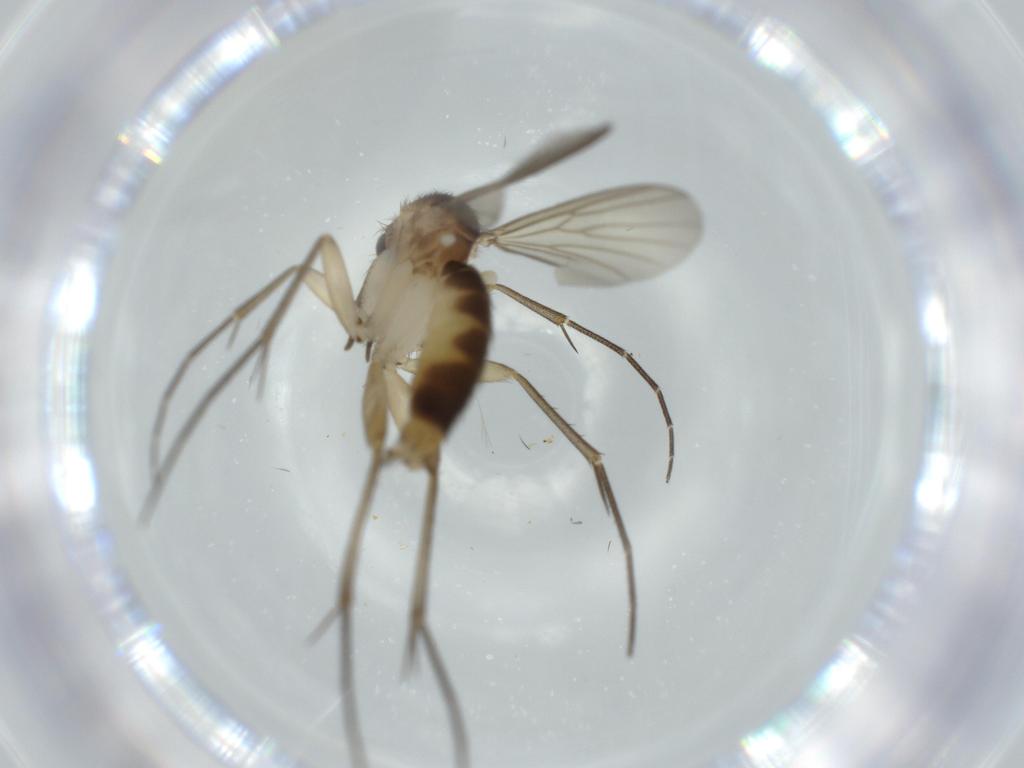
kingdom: Animalia
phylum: Arthropoda
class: Insecta
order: Diptera
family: Mycetophilidae
